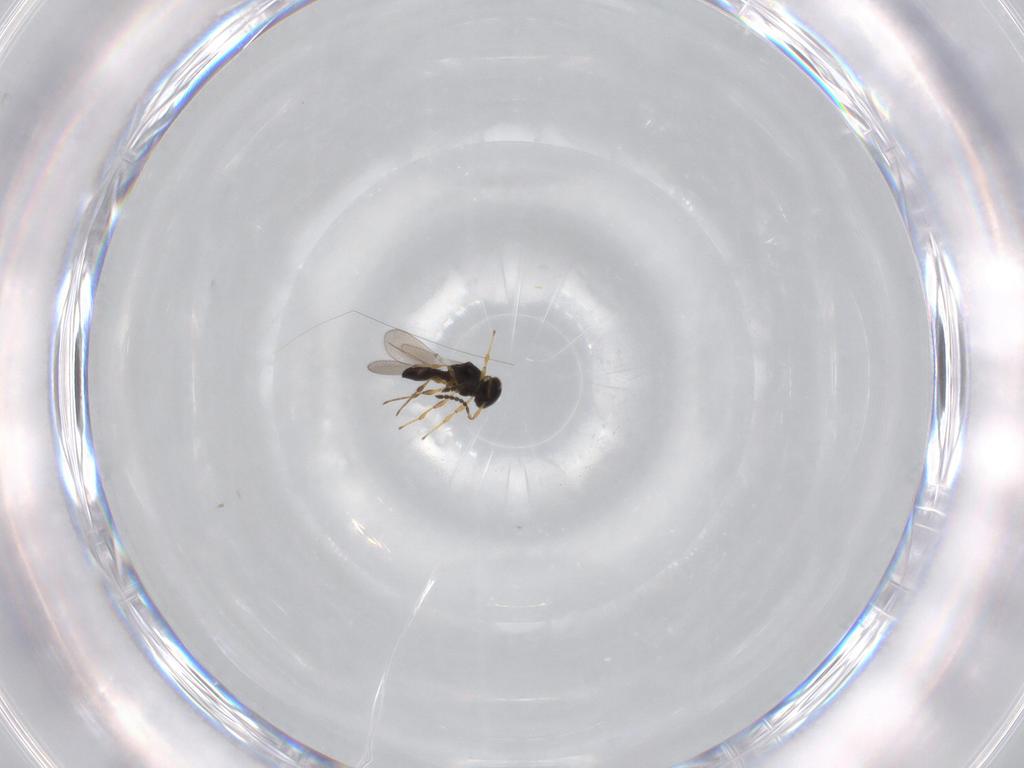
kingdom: Animalia
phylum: Arthropoda
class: Insecta
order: Hymenoptera
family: Platygastridae
